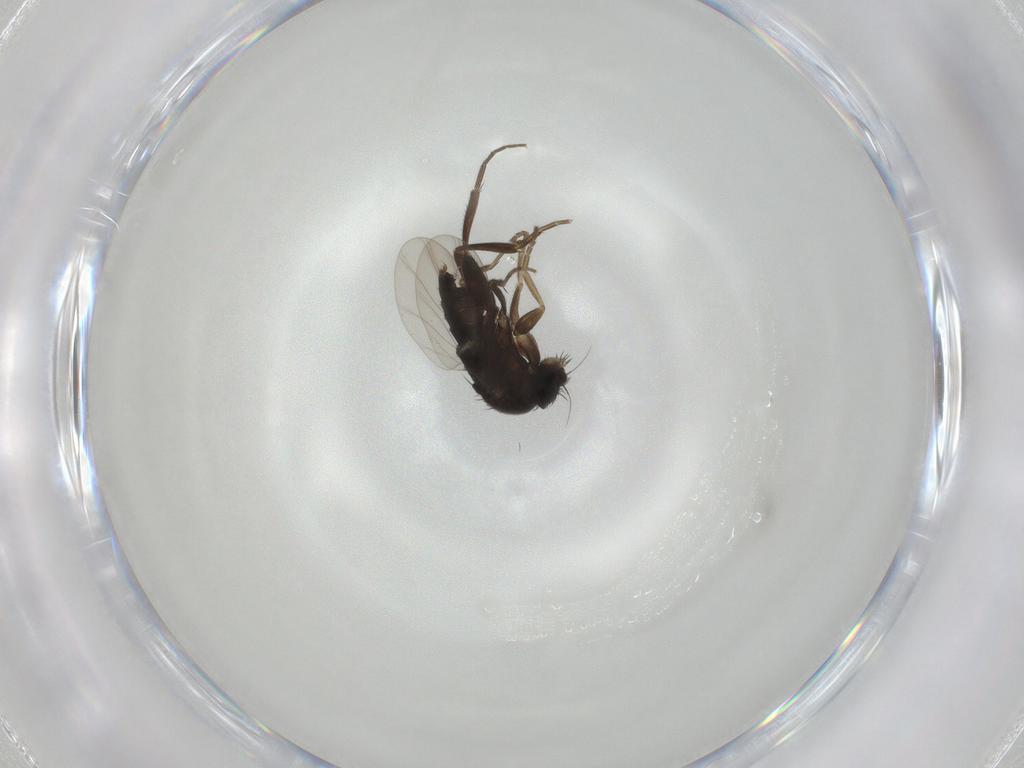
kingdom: Animalia
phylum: Arthropoda
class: Insecta
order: Diptera
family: Phoridae
